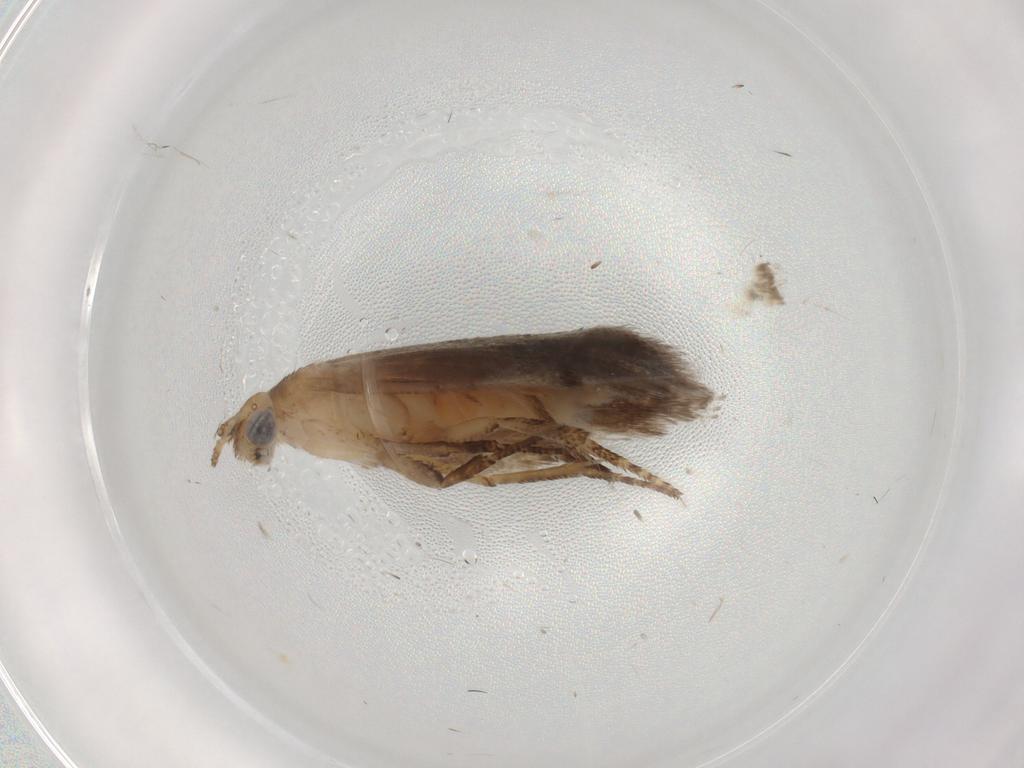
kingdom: Animalia
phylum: Arthropoda
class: Insecta
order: Lepidoptera
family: Plutellidae
